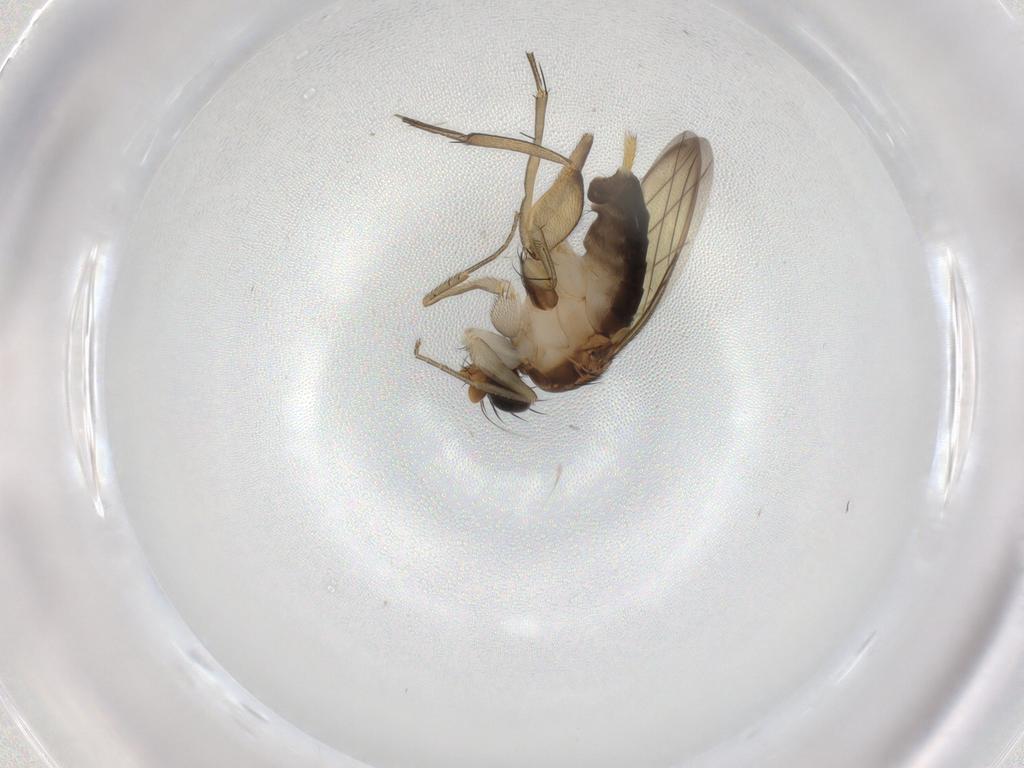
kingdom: Animalia
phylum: Arthropoda
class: Insecta
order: Diptera
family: Phoridae
